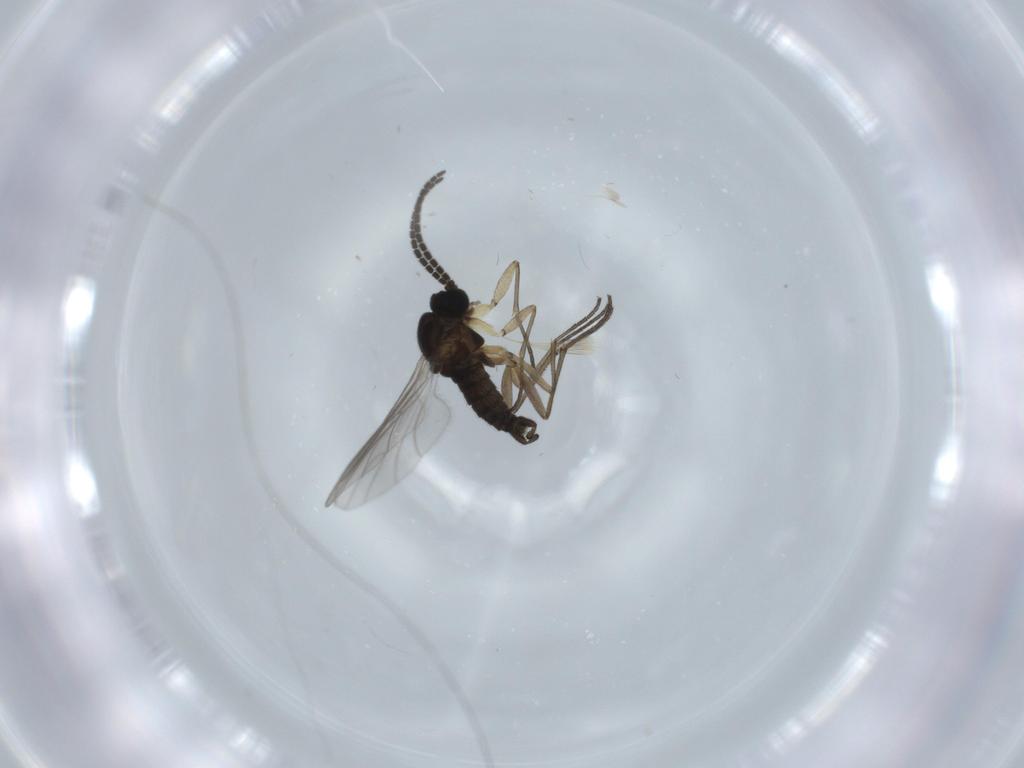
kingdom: Animalia
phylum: Arthropoda
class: Insecta
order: Diptera
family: Sciaridae
